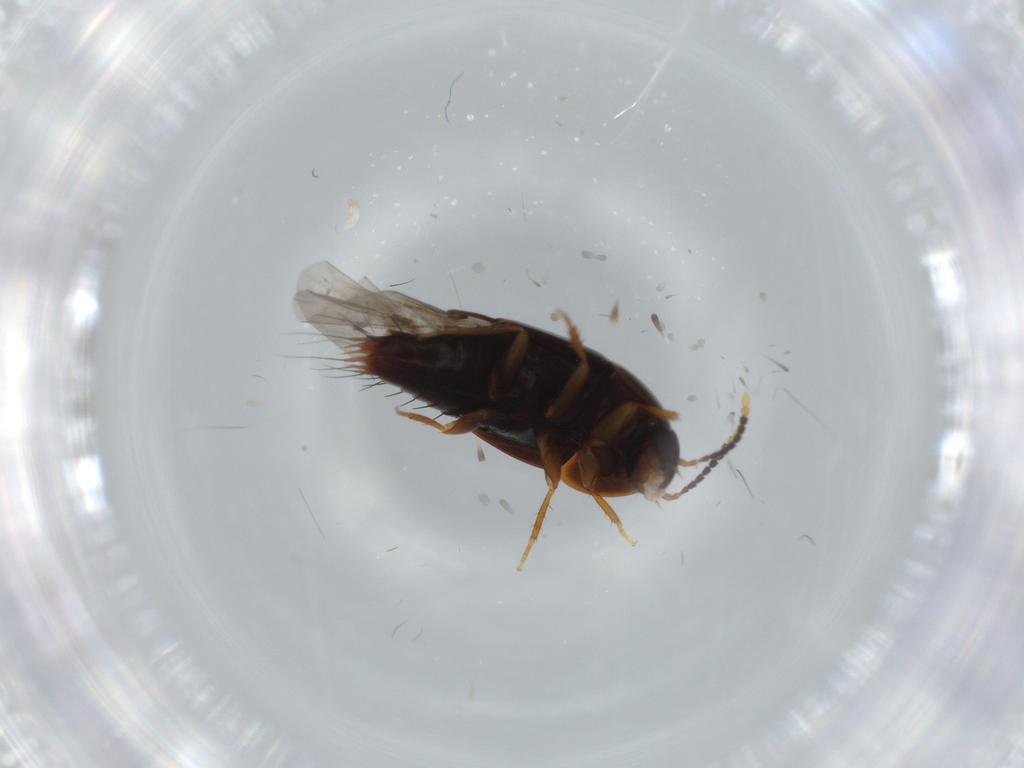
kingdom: Animalia
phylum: Arthropoda
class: Insecta
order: Coleoptera
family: Staphylinidae
